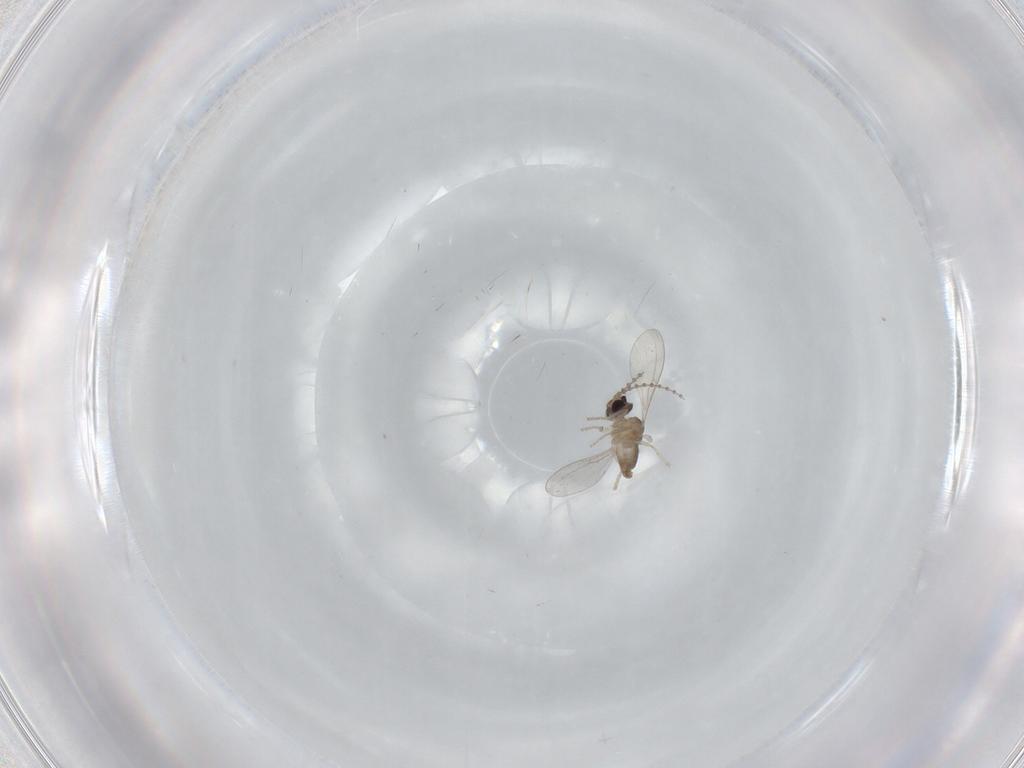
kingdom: Animalia
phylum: Arthropoda
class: Insecta
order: Diptera
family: Cecidomyiidae
